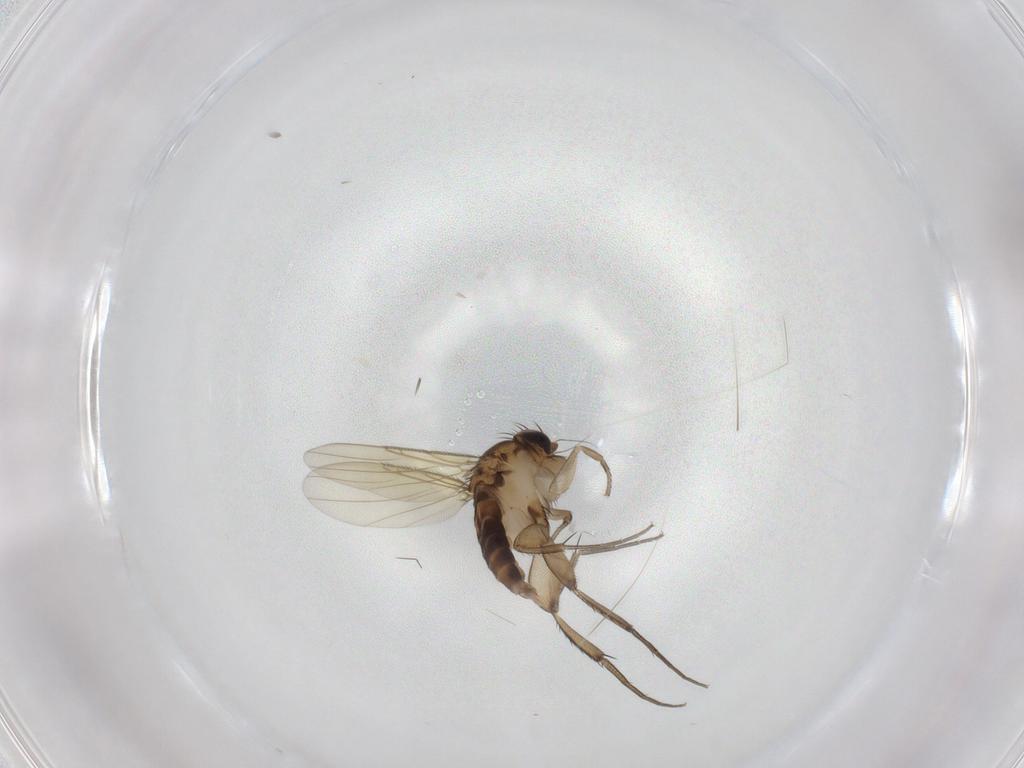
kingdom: Animalia
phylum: Arthropoda
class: Insecta
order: Diptera
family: Phoridae
